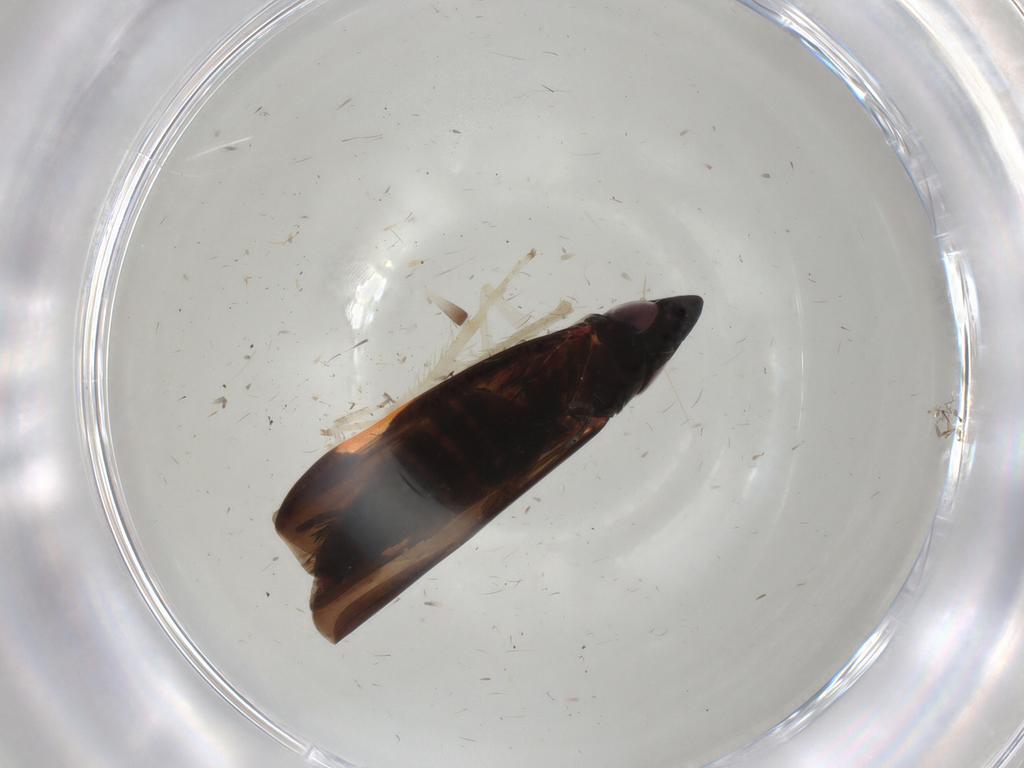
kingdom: Animalia
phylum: Arthropoda
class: Insecta
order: Hemiptera
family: Cicadellidae
